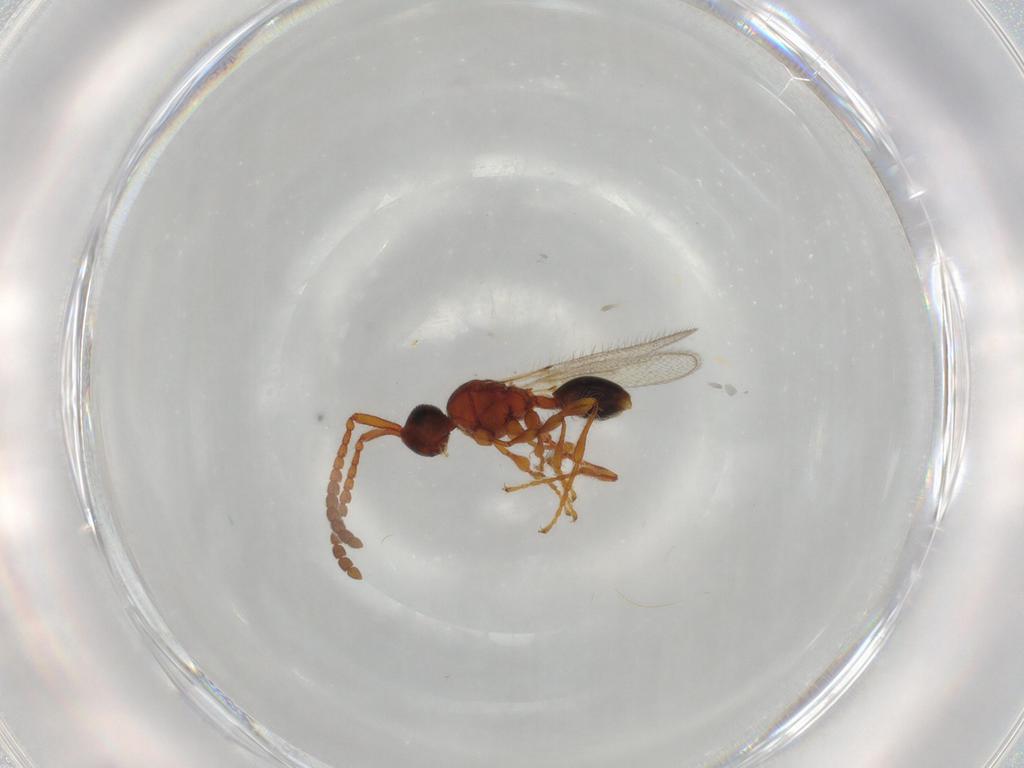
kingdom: Animalia
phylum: Arthropoda
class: Insecta
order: Hymenoptera
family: Diapriidae
